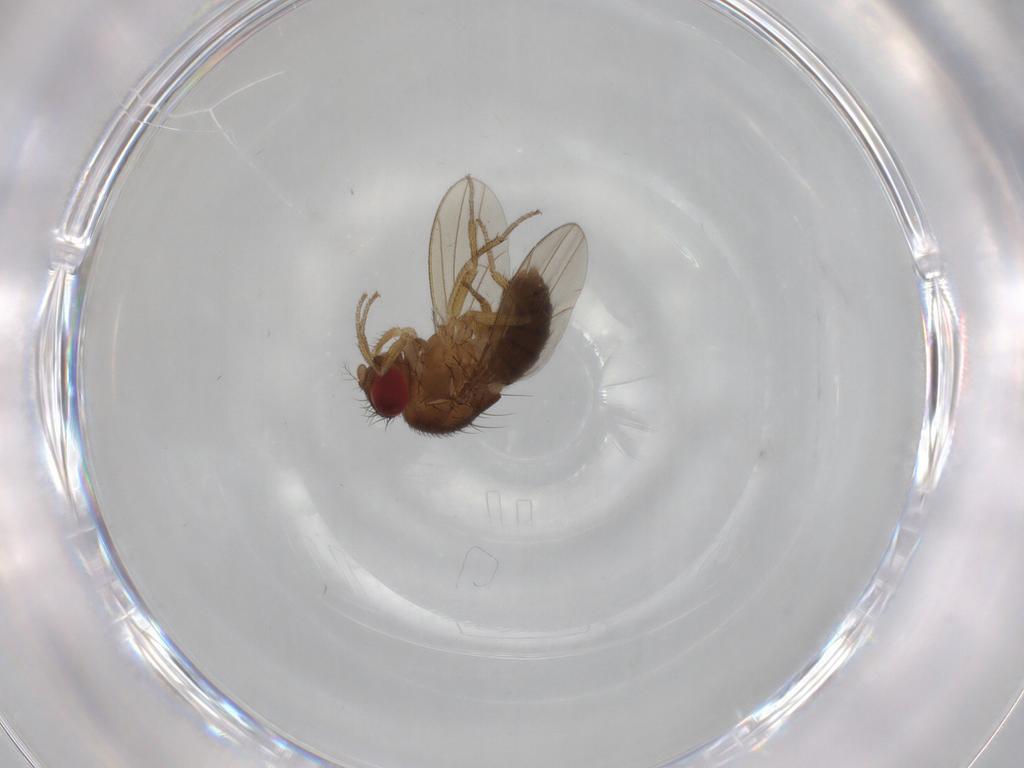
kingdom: Animalia
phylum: Arthropoda
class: Insecta
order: Diptera
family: Drosophilidae
